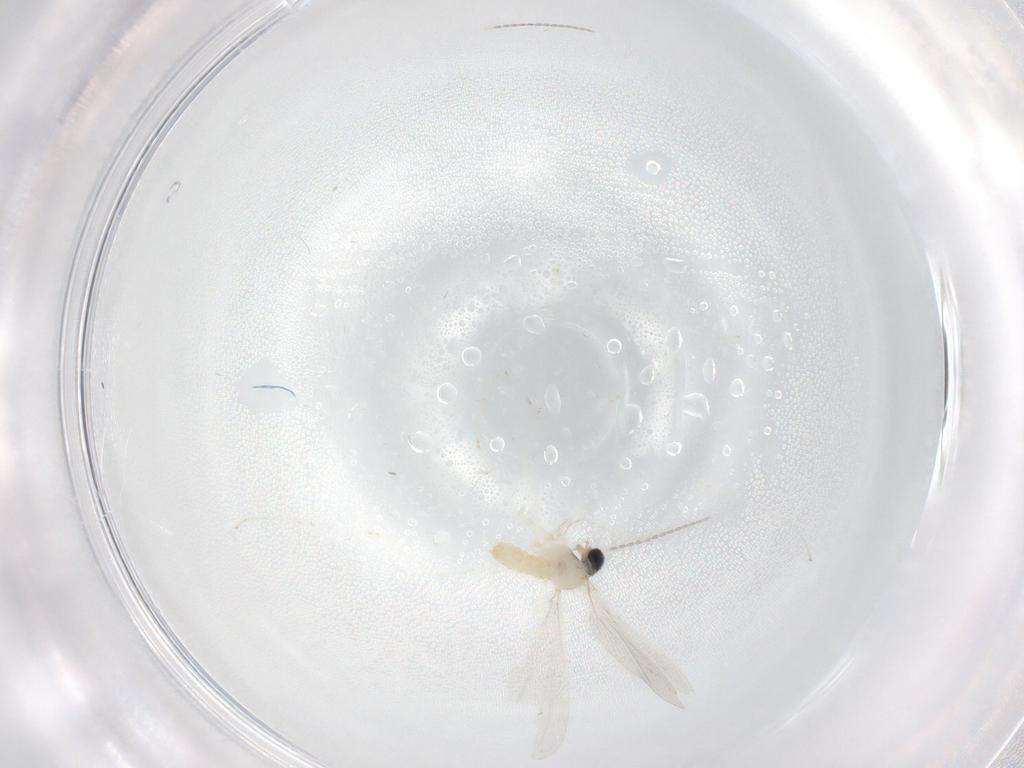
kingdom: Animalia
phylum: Arthropoda
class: Insecta
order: Diptera
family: Cecidomyiidae
